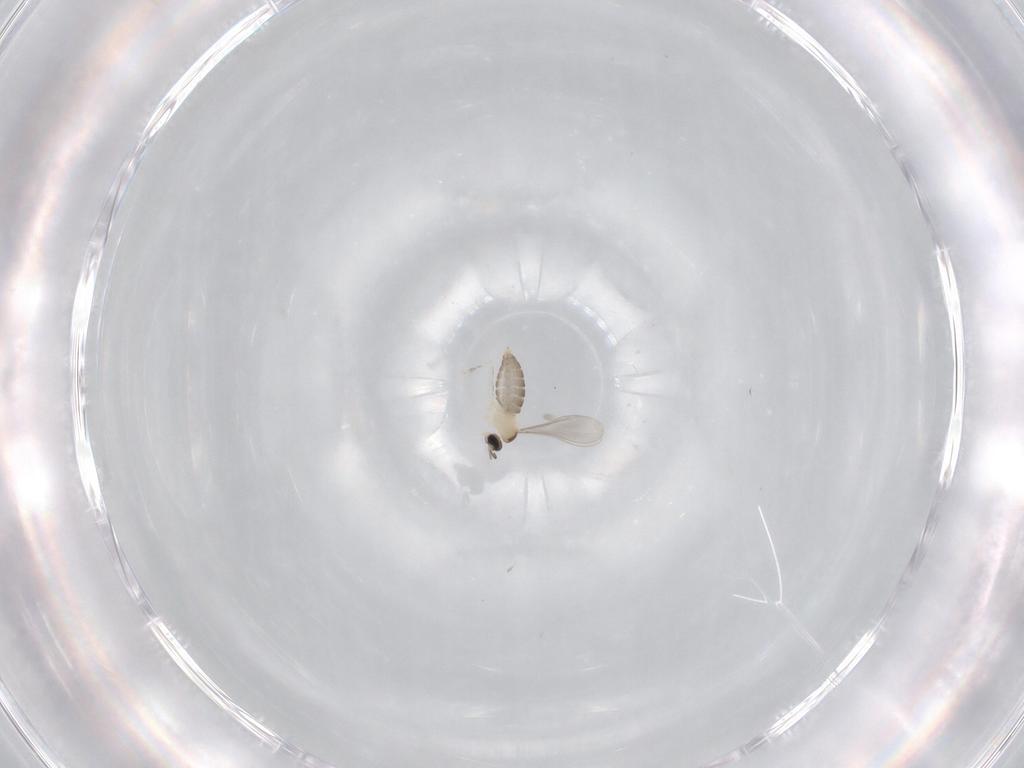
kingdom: Animalia
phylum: Arthropoda
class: Insecta
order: Diptera
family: Cecidomyiidae
